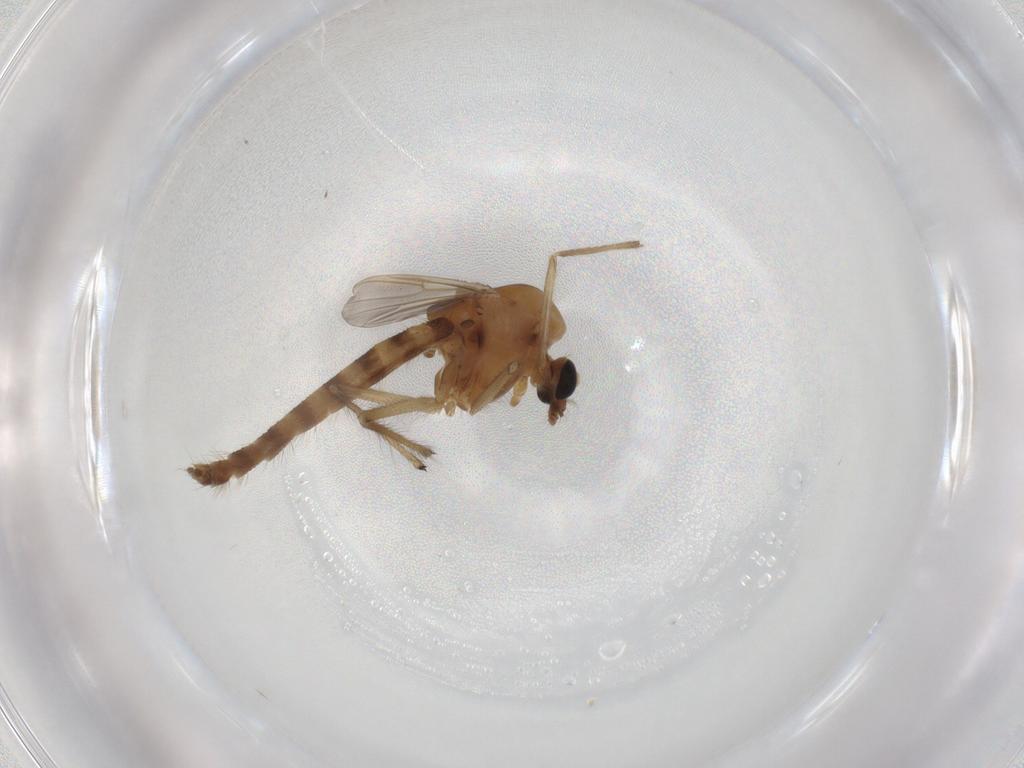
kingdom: Animalia
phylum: Arthropoda
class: Insecta
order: Diptera
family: Chironomidae
